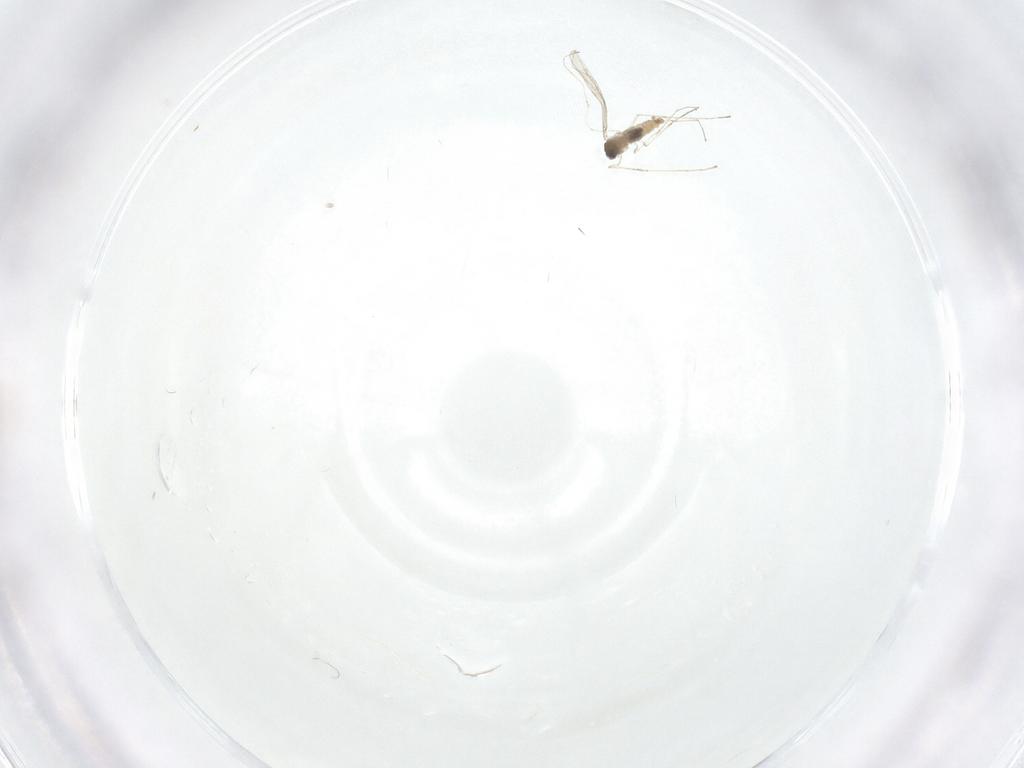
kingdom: Animalia
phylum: Arthropoda
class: Insecta
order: Diptera
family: Cecidomyiidae
